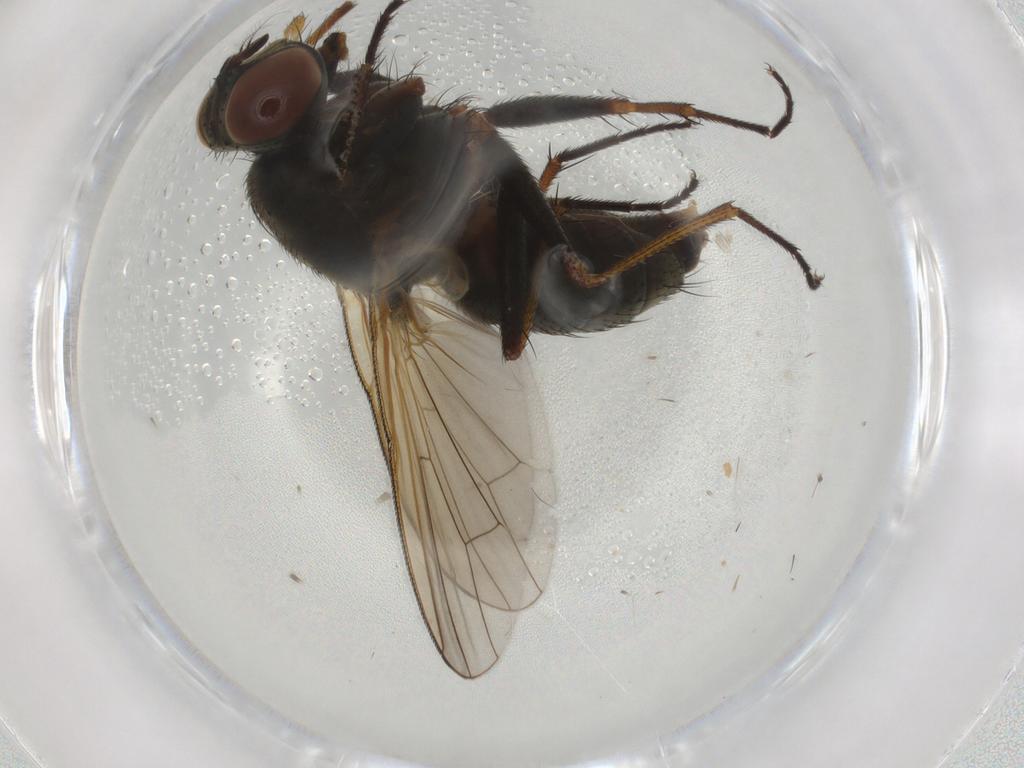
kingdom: Animalia
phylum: Arthropoda
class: Insecta
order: Diptera
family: Muscidae
